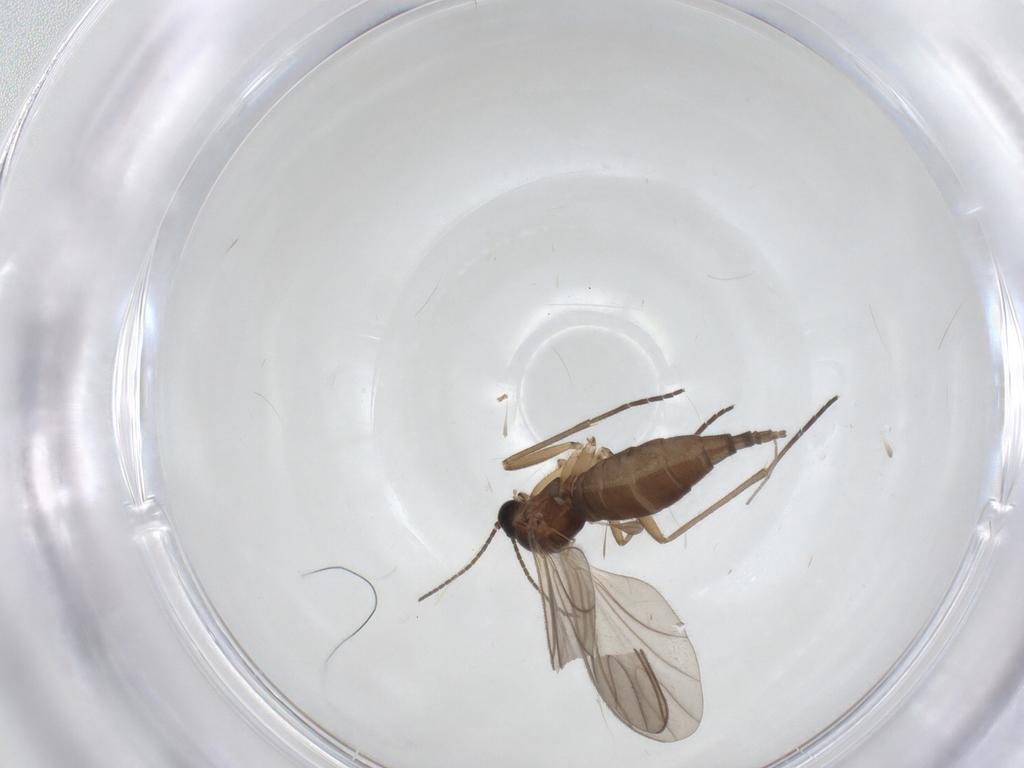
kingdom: Animalia
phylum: Arthropoda
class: Insecta
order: Diptera
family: Sciaridae
